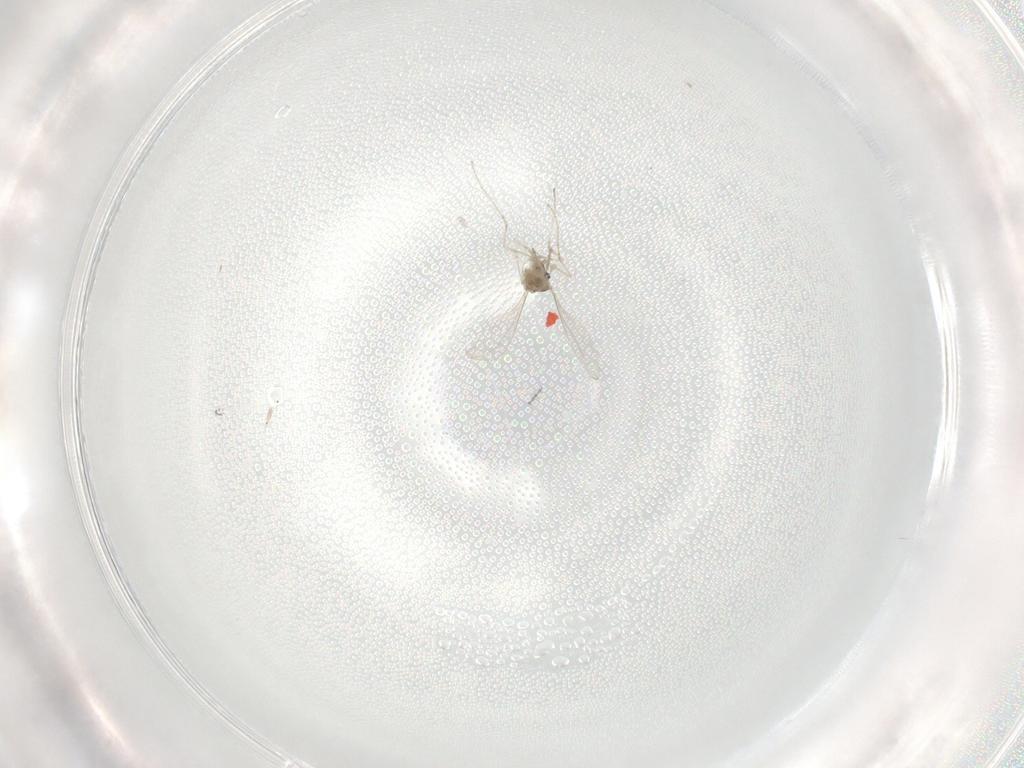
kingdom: Animalia
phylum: Arthropoda
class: Insecta
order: Diptera
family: Cecidomyiidae
